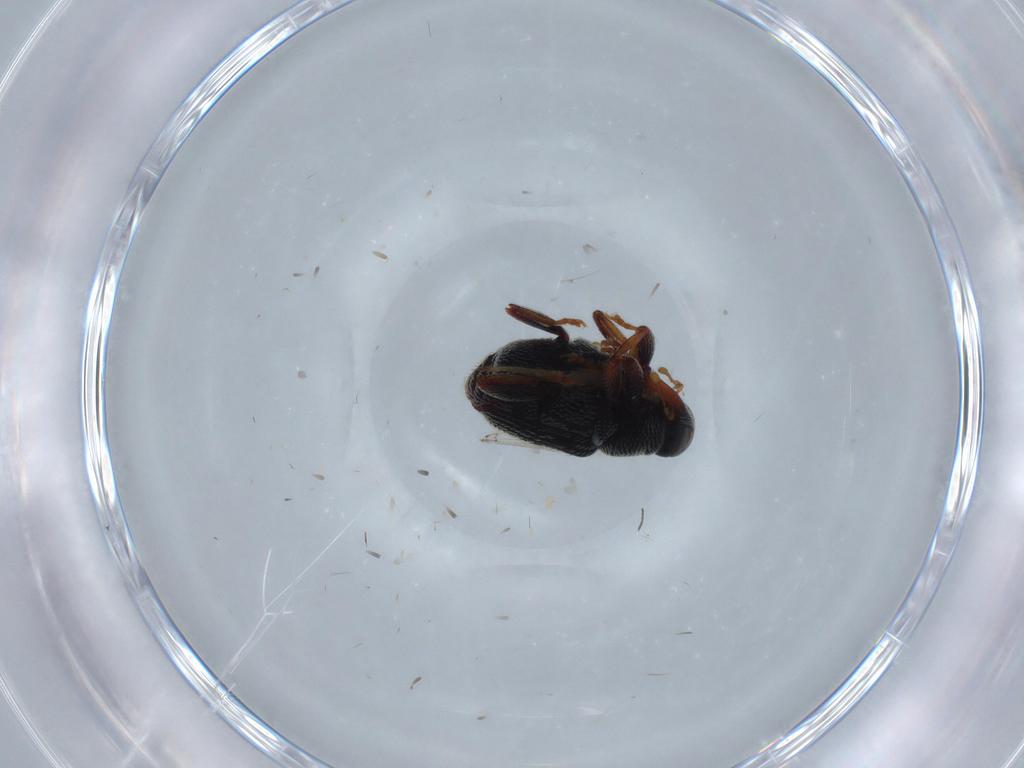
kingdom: Animalia
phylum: Arthropoda
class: Insecta
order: Coleoptera
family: Curculionidae
